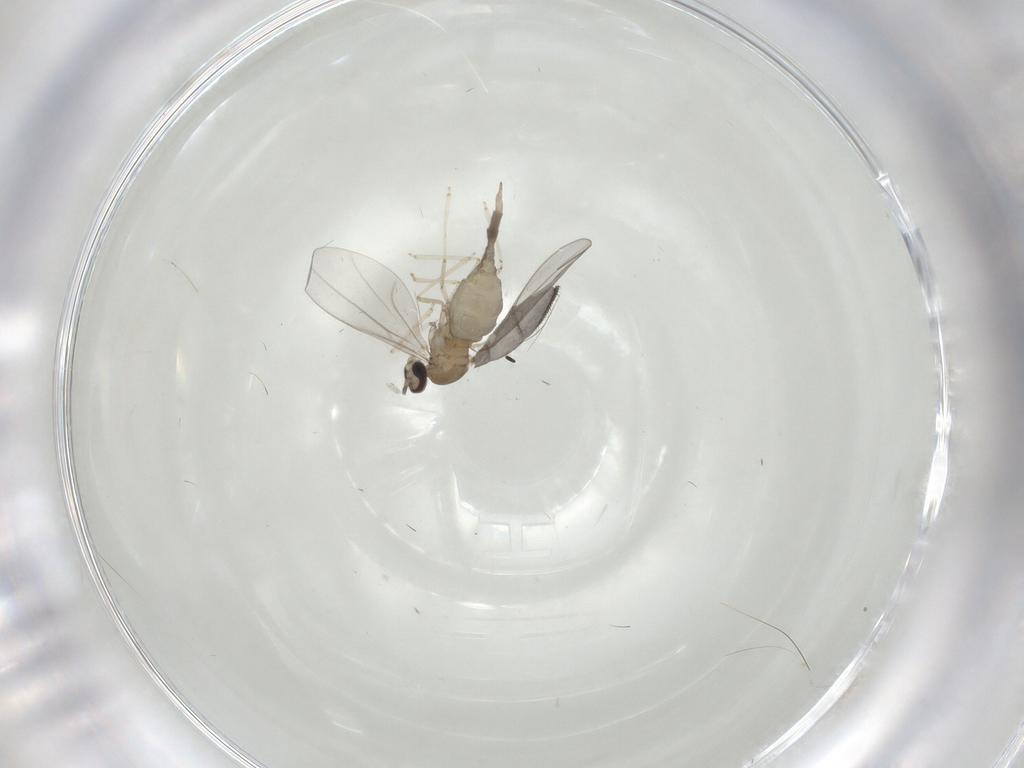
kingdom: Animalia
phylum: Arthropoda
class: Insecta
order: Diptera
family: Cecidomyiidae
